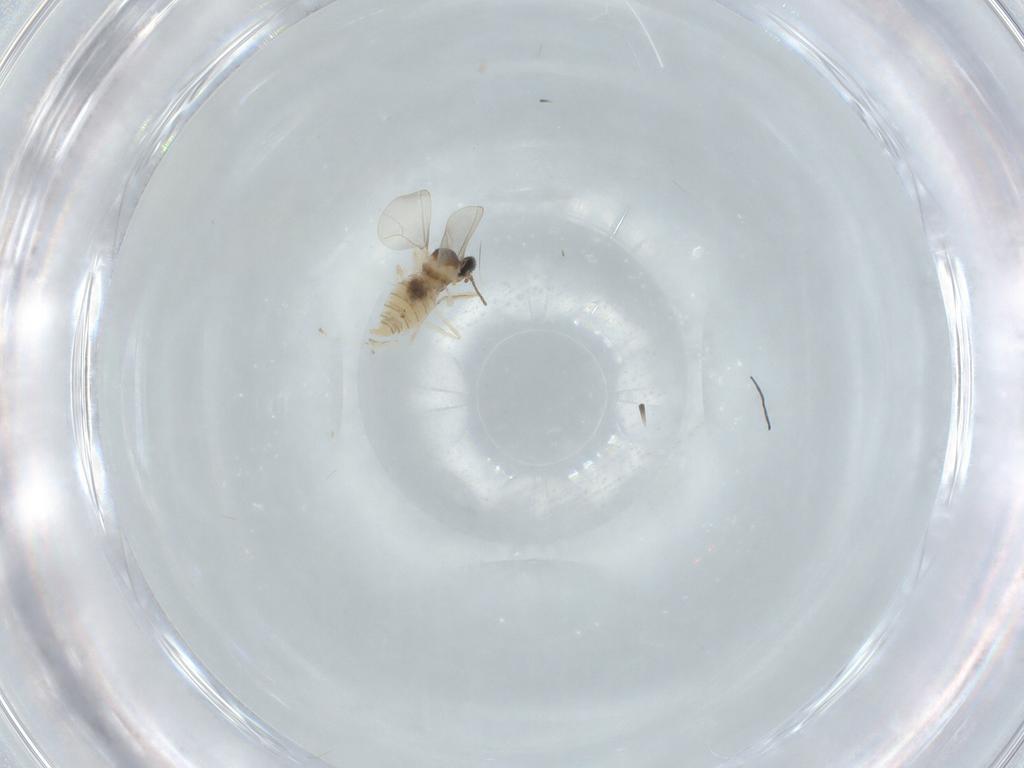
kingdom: Animalia
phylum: Arthropoda
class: Insecta
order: Diptera
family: Cecidomyiidae
